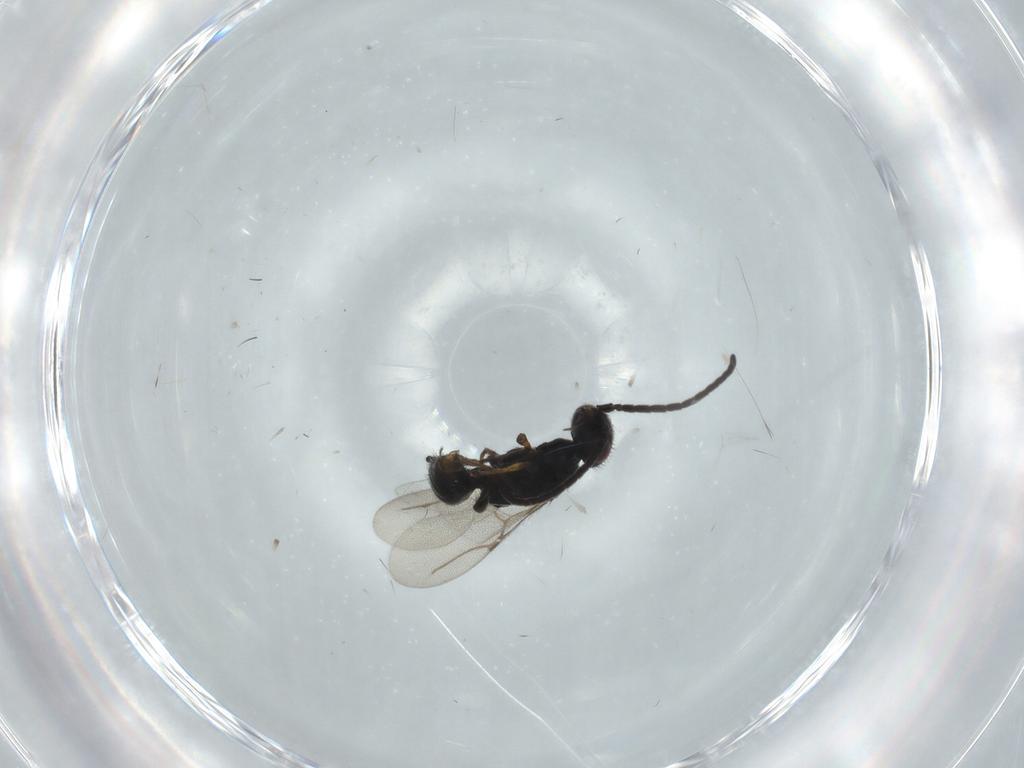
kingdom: Animalia
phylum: Arthropoda
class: Insecta
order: Hymenoptera
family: Bethylidae
